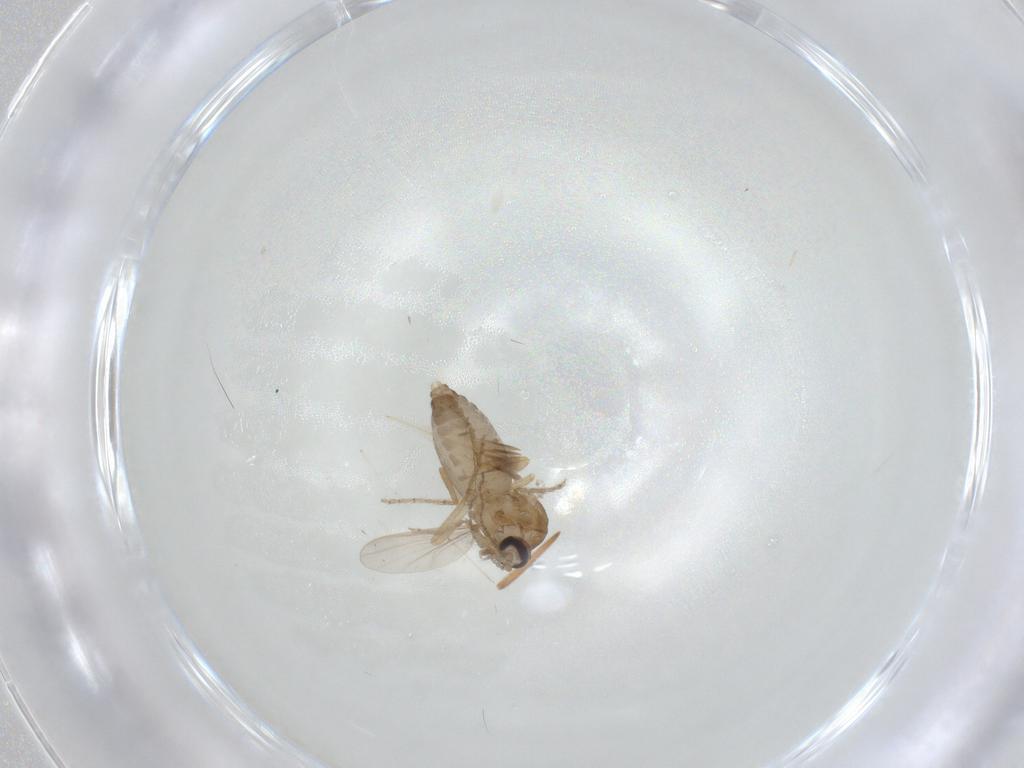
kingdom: Animalia
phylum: Arthropoda
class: Insecta
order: Diptera
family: Ceratopogonidae
